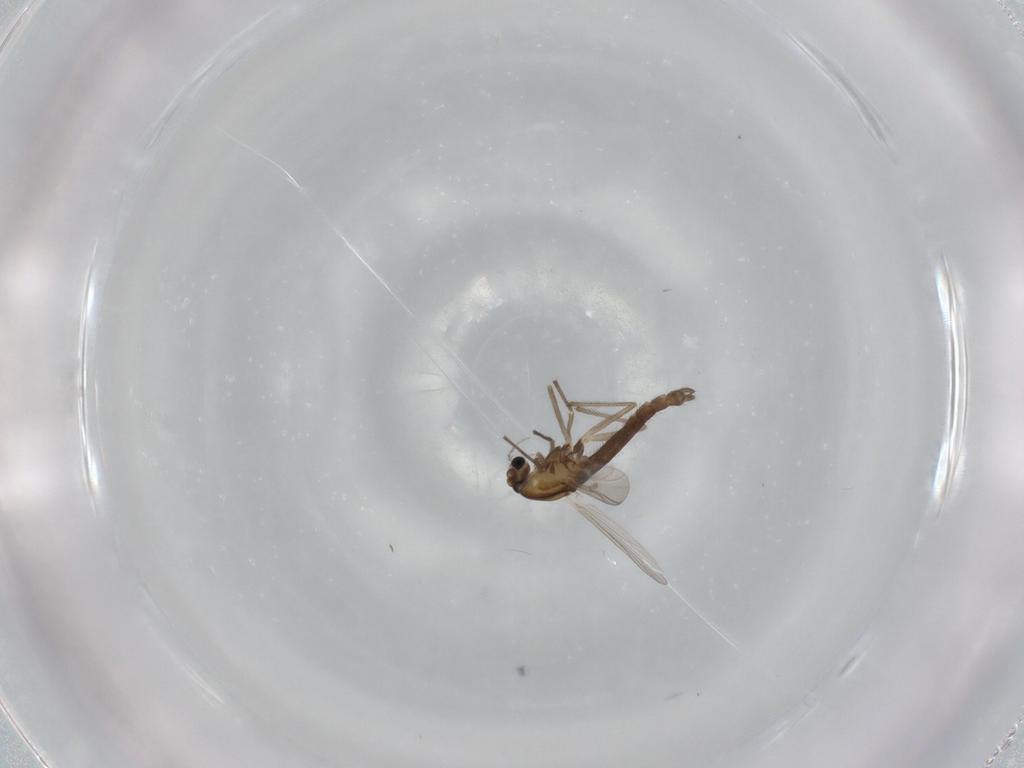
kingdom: Animalia
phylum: Arthropoda
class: Insecta
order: Diptera
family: Chironomidae
